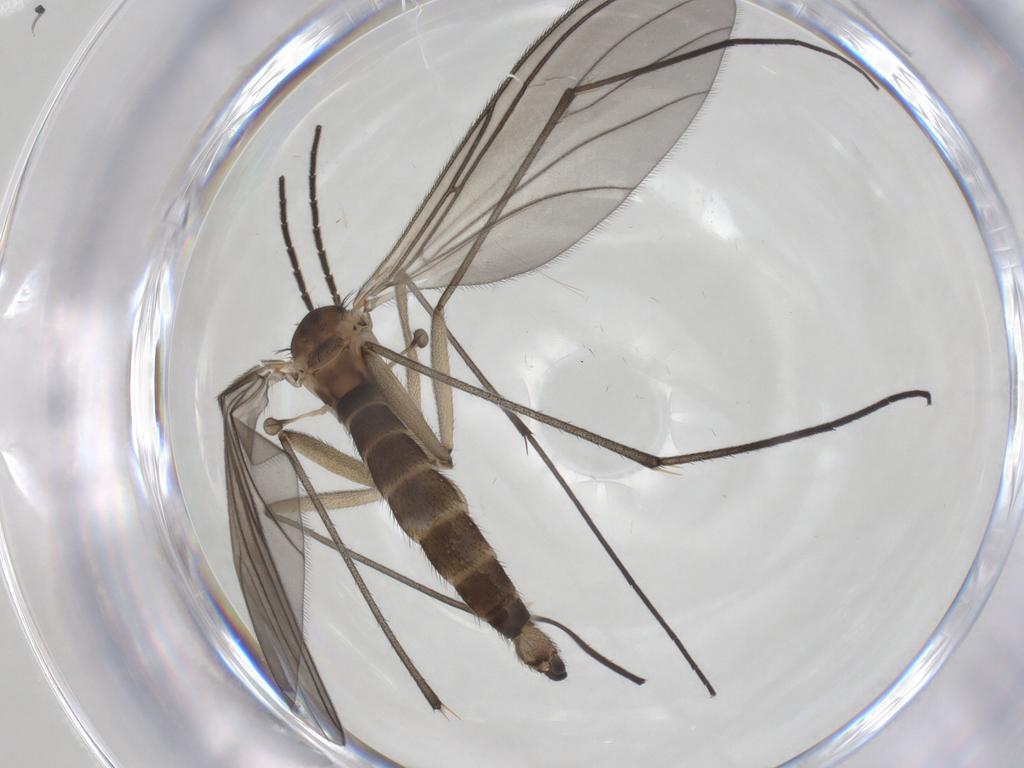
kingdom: Animalia
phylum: Arthropoda
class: Insecta
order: Diptera
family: Sciaridae
